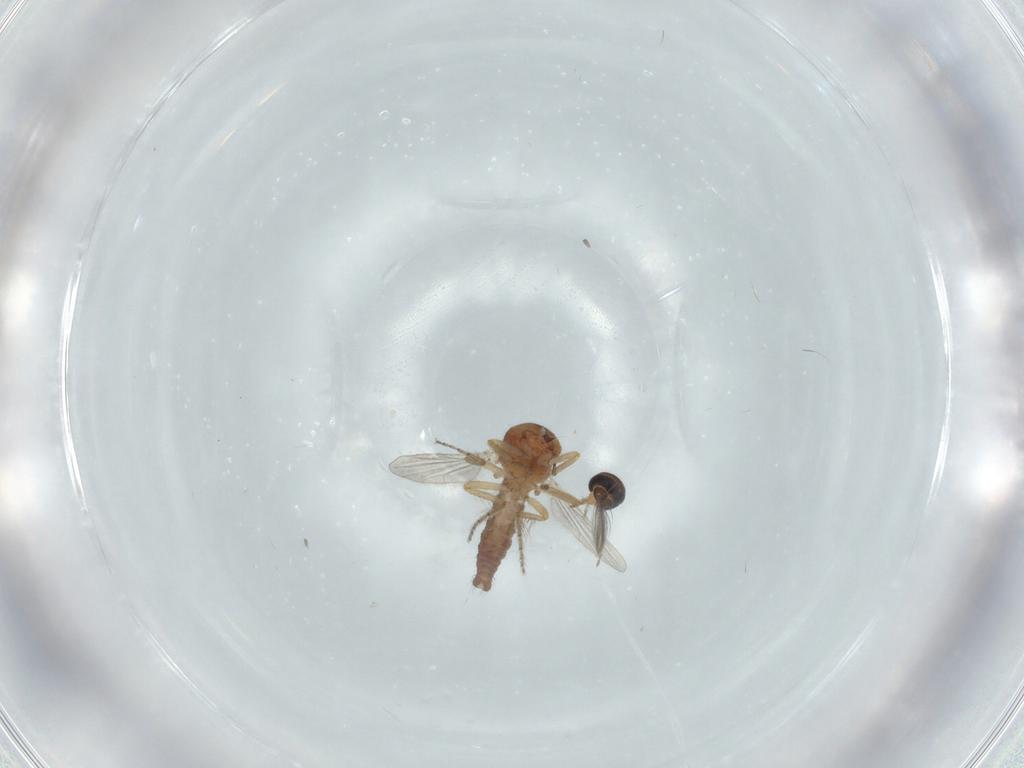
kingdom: Animalia
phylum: Arthropoda
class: Insecta
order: Diptera
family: Ceratopogonidae
